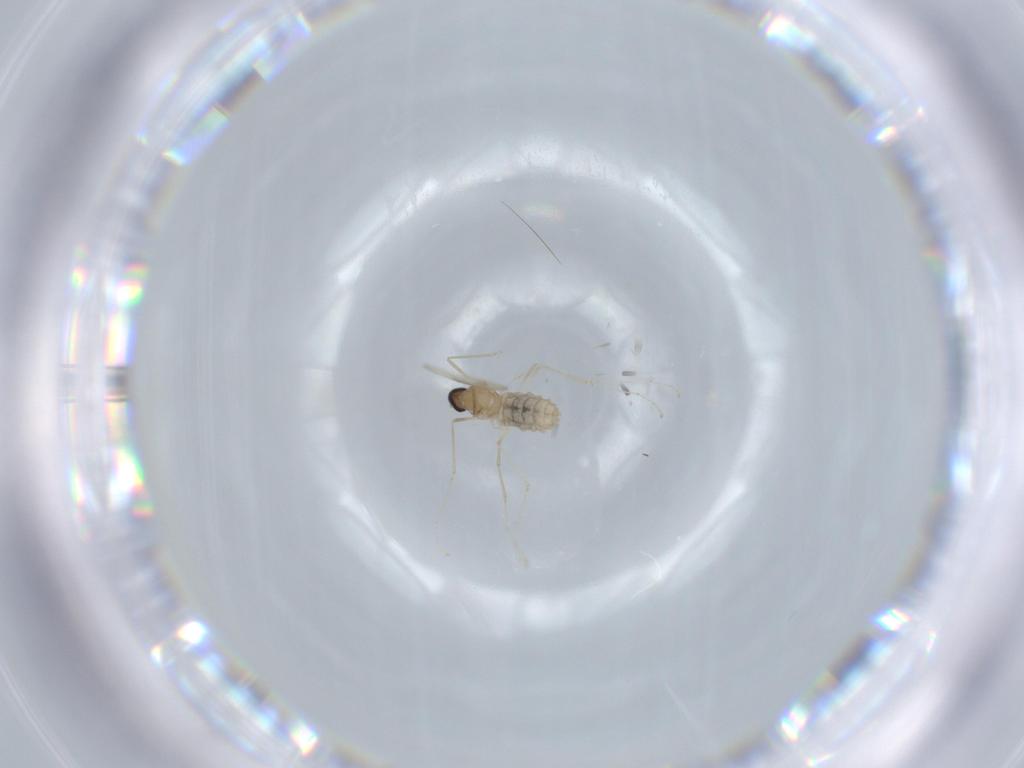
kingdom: Animalia
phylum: Arthropoda
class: Insecta
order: Diptera
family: Cecidomyiidae
